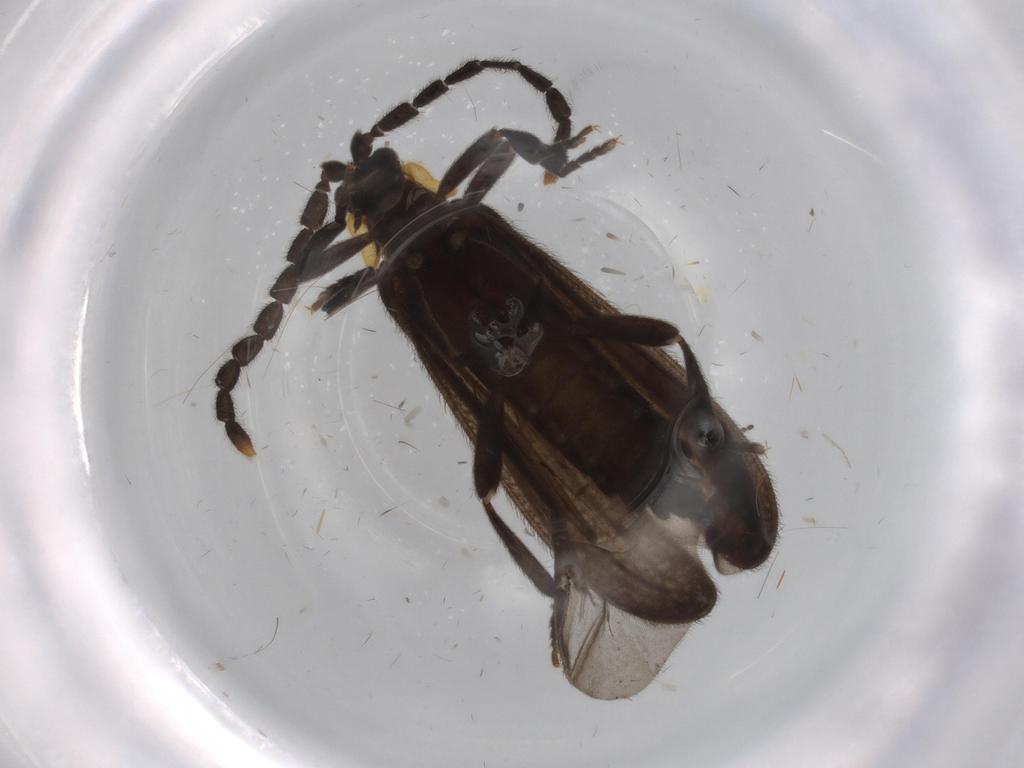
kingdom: Animalia
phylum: Arthropoda
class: Insecta
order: Coleoptera
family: Lycidae
